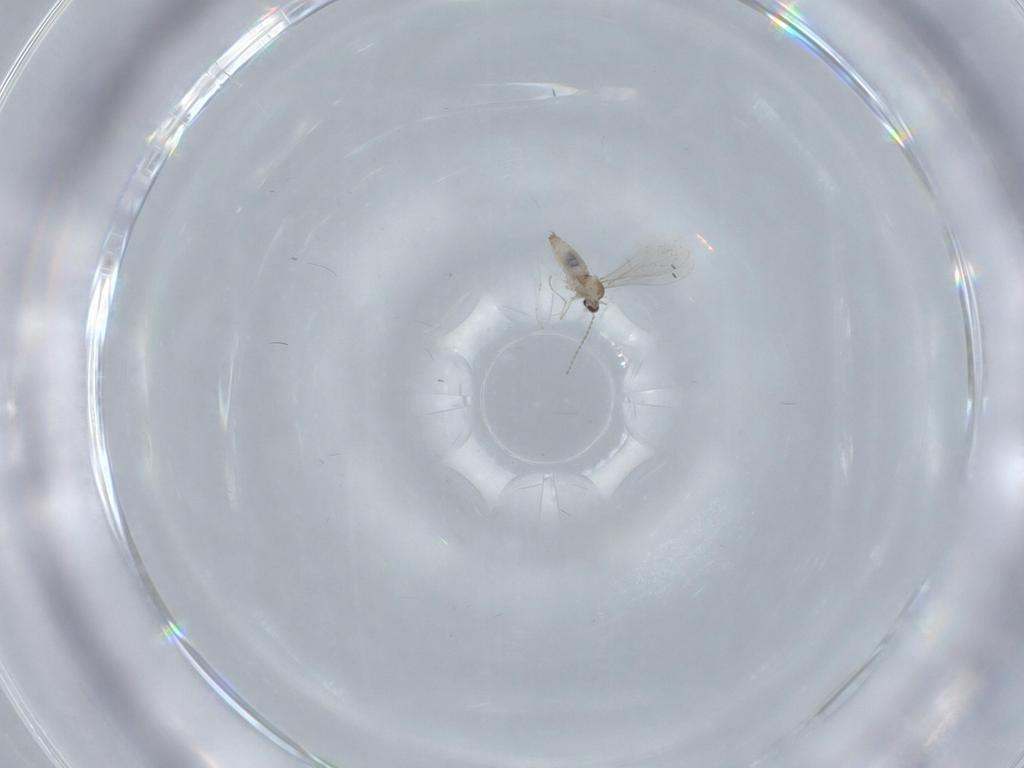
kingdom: Animalia
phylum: Arthropoda
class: Insecta
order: Diptera
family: Cecidomyiidae
